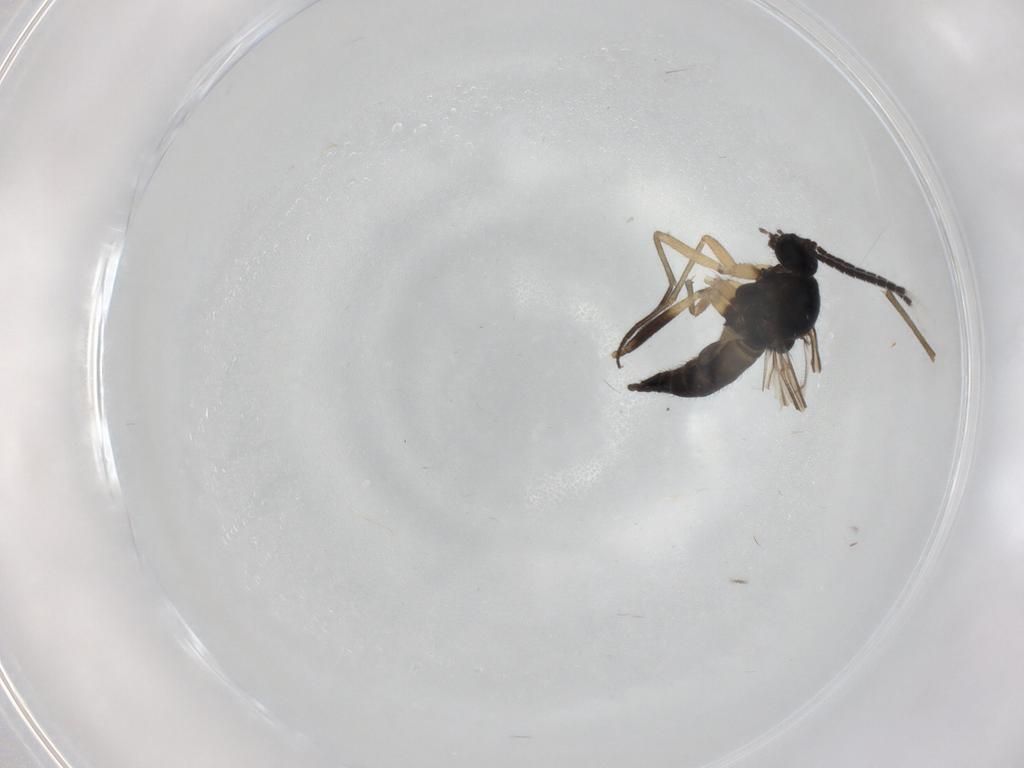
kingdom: Animalia
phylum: Arthropoda
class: Insecta
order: Diptera
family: Sciaridae
